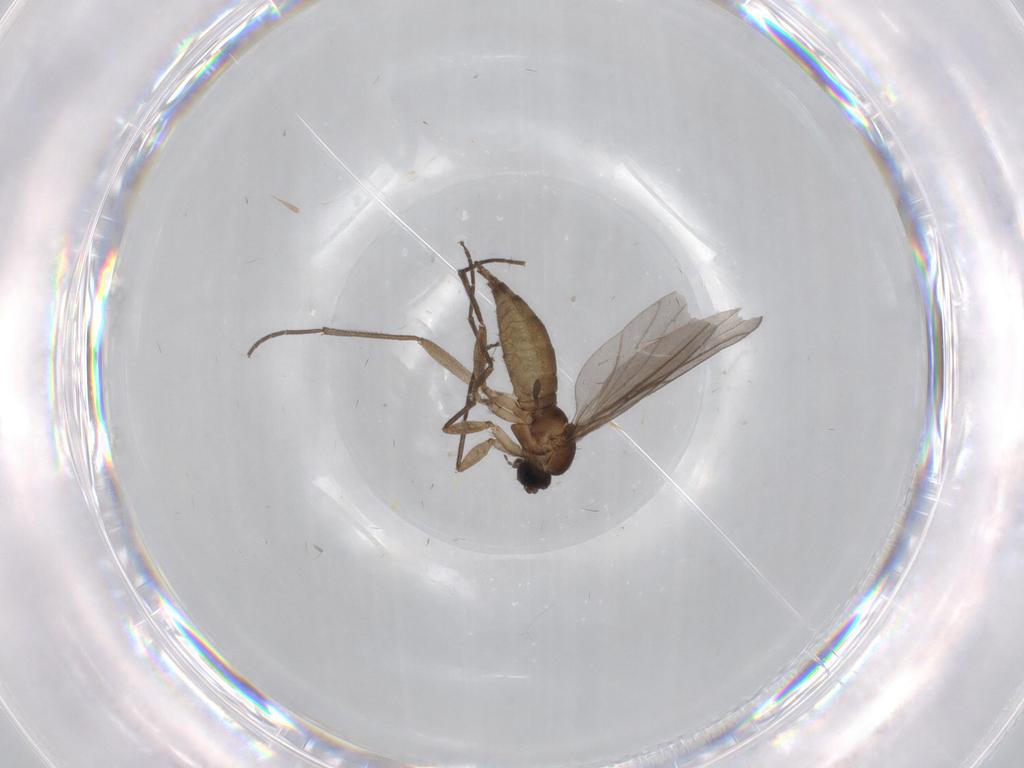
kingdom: Animalia
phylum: Arthropoda
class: Insecta
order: Diptera
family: Sciaridae
